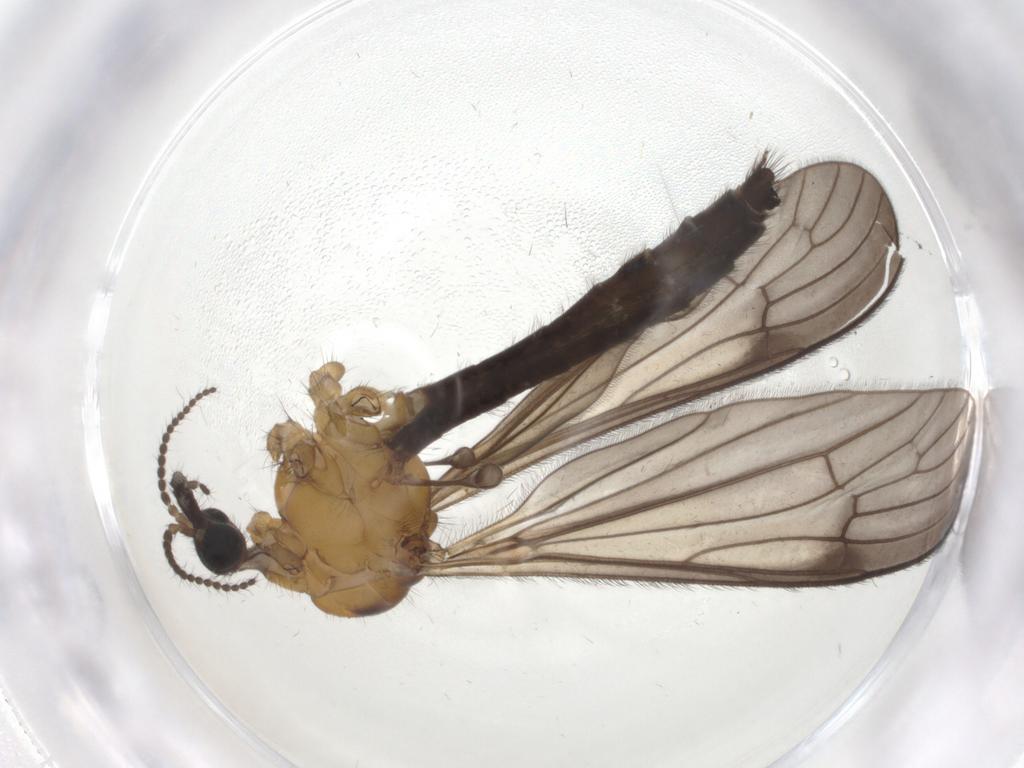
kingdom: Animalia
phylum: Arthropoda
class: Insecta
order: Diptera
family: Limoniidae
